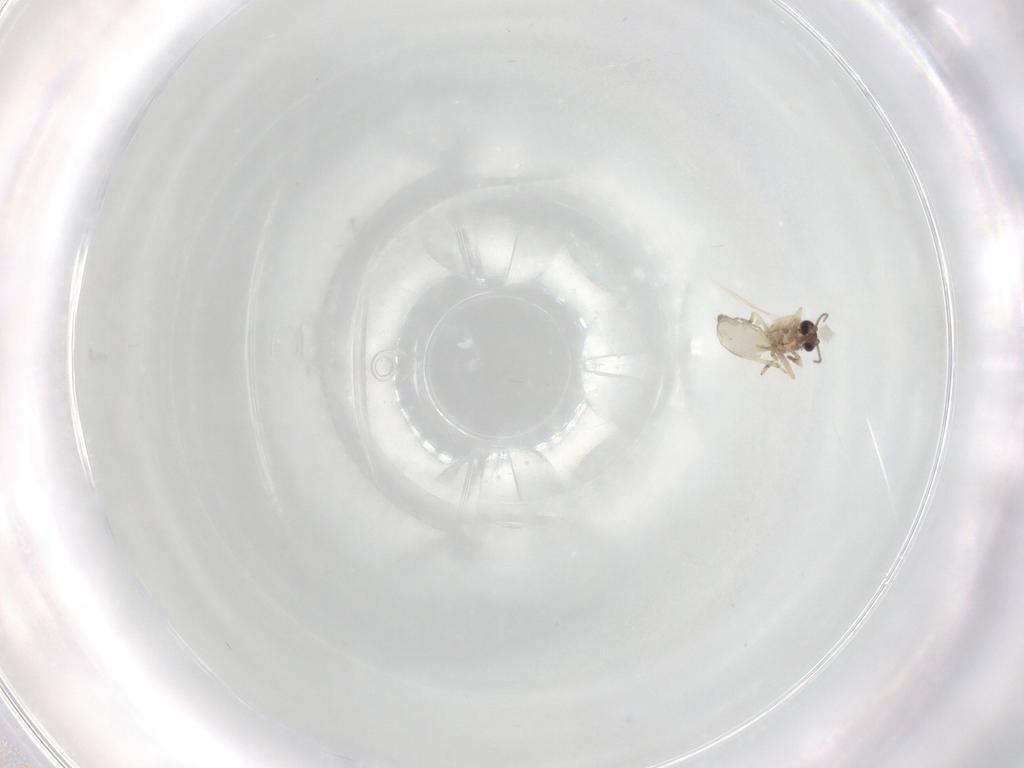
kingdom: Animalia
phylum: Arthropoda
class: Insecta
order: Diptera
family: Ceratopogonidae
